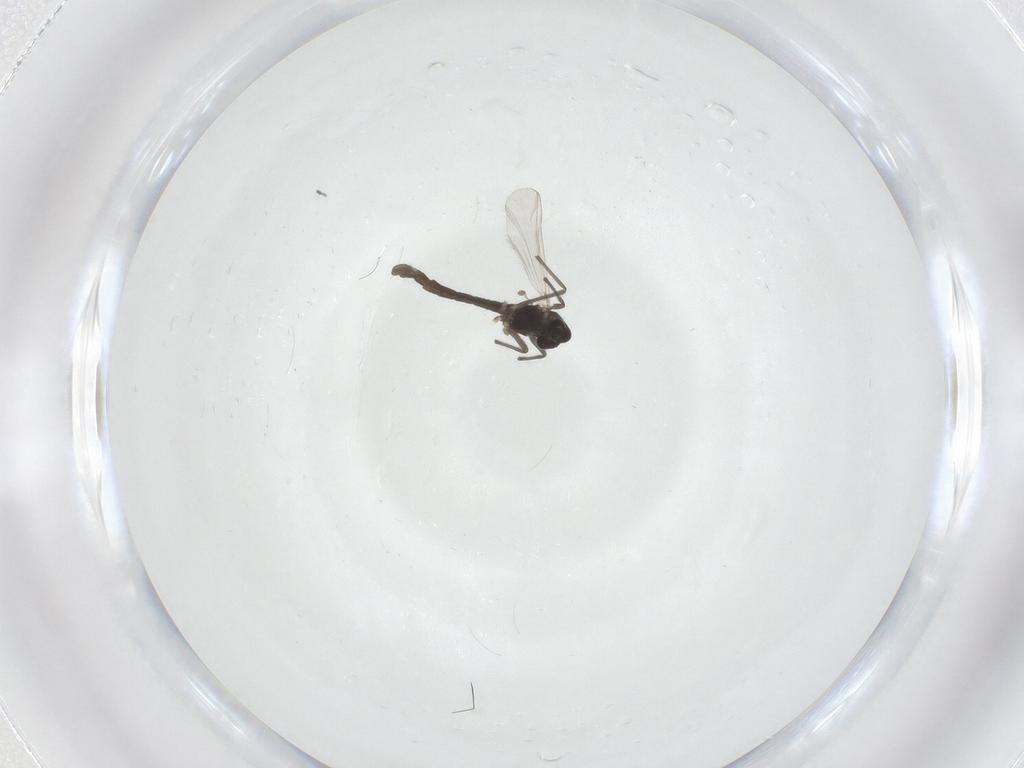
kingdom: Animalia
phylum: Arthropoda
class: Insecta
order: Diptera
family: Chironomidae
